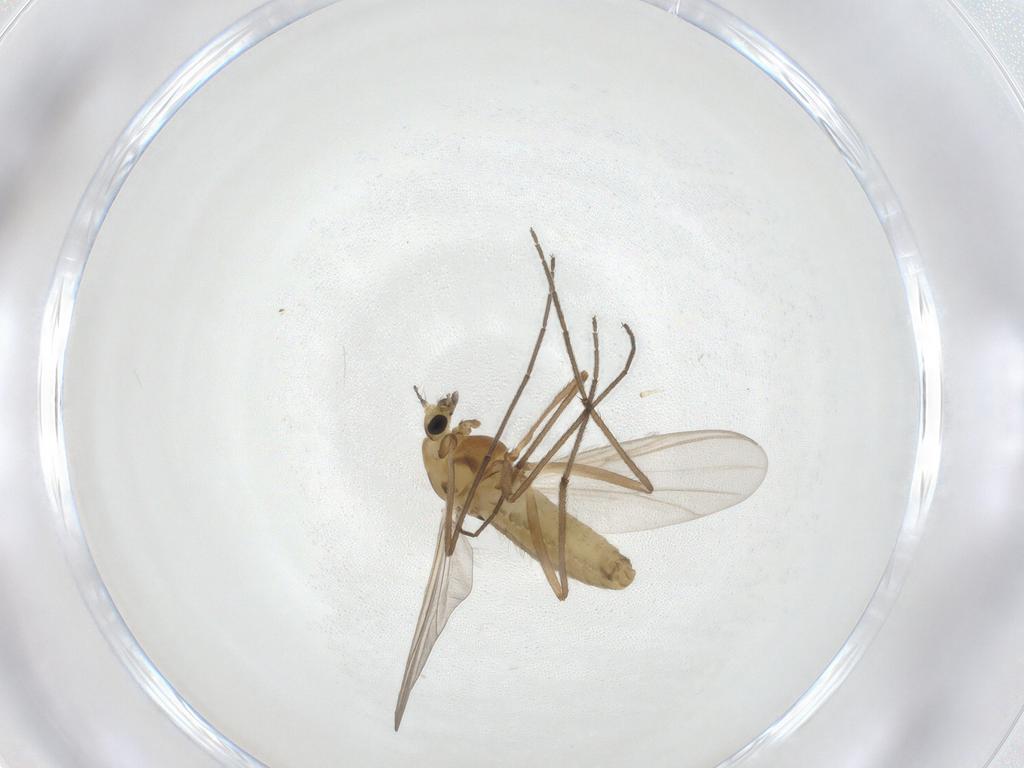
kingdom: Animalia
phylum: Arthropoda
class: Insecta
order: Diptera
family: Chironomidae
